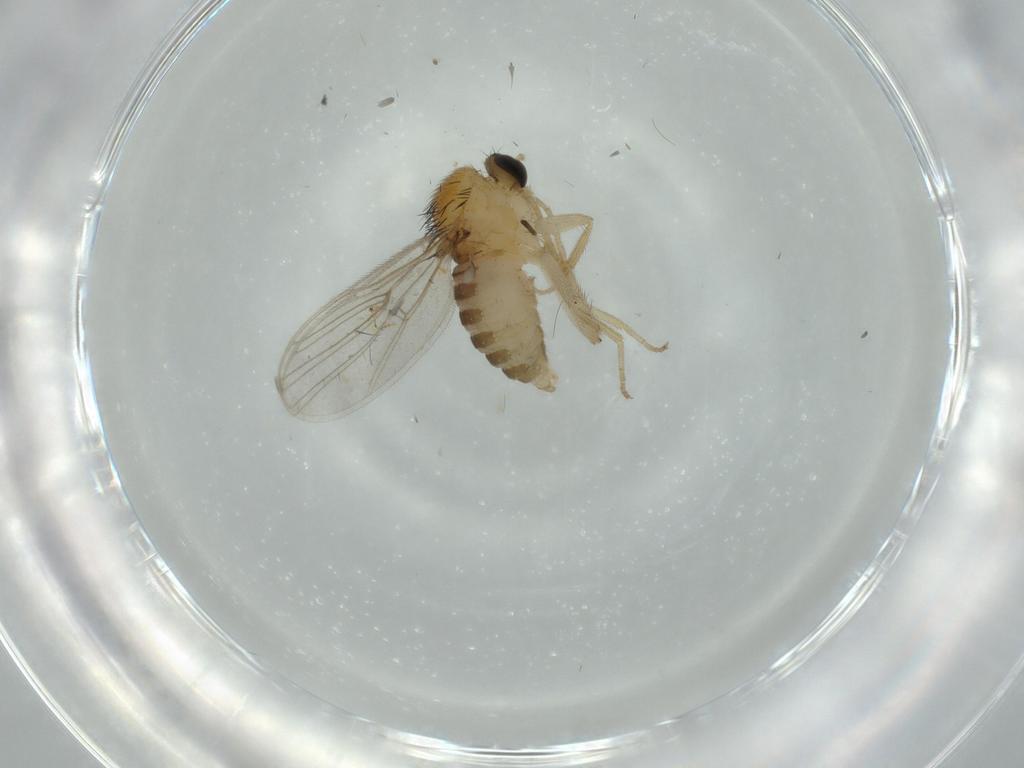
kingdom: Animalia
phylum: Arthropoda
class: Insecta
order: Diptera
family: Hybotidae
